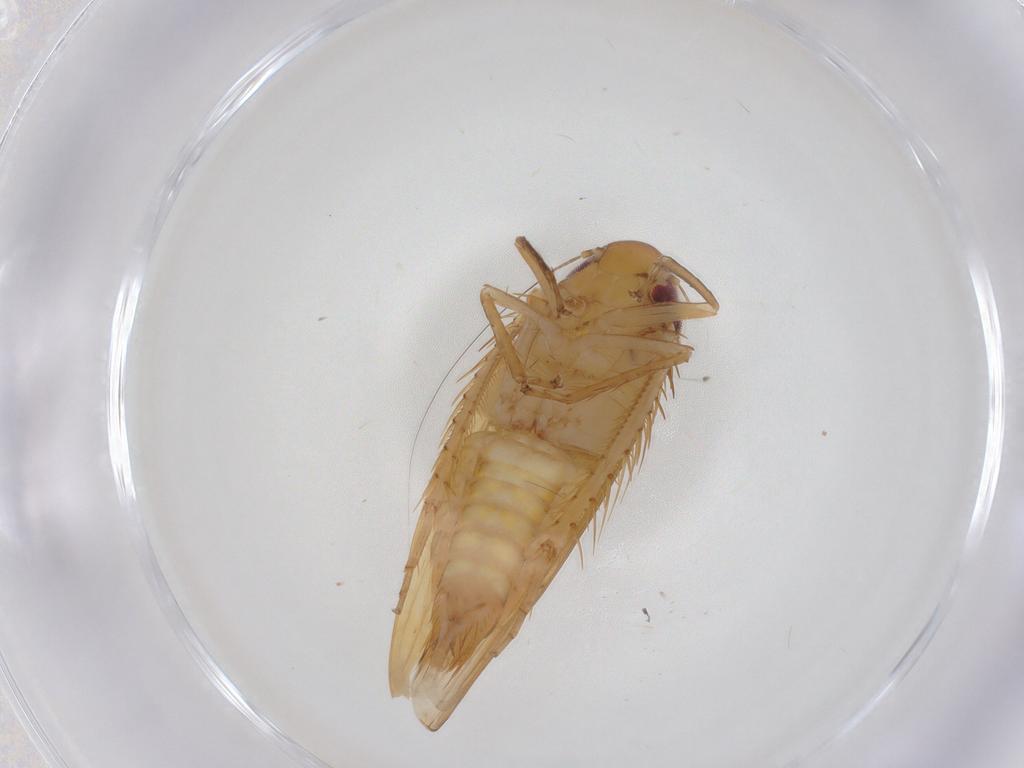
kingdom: Animalia
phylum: Arthropoda
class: Insecta
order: Hemiptera
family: Cicadellidae
